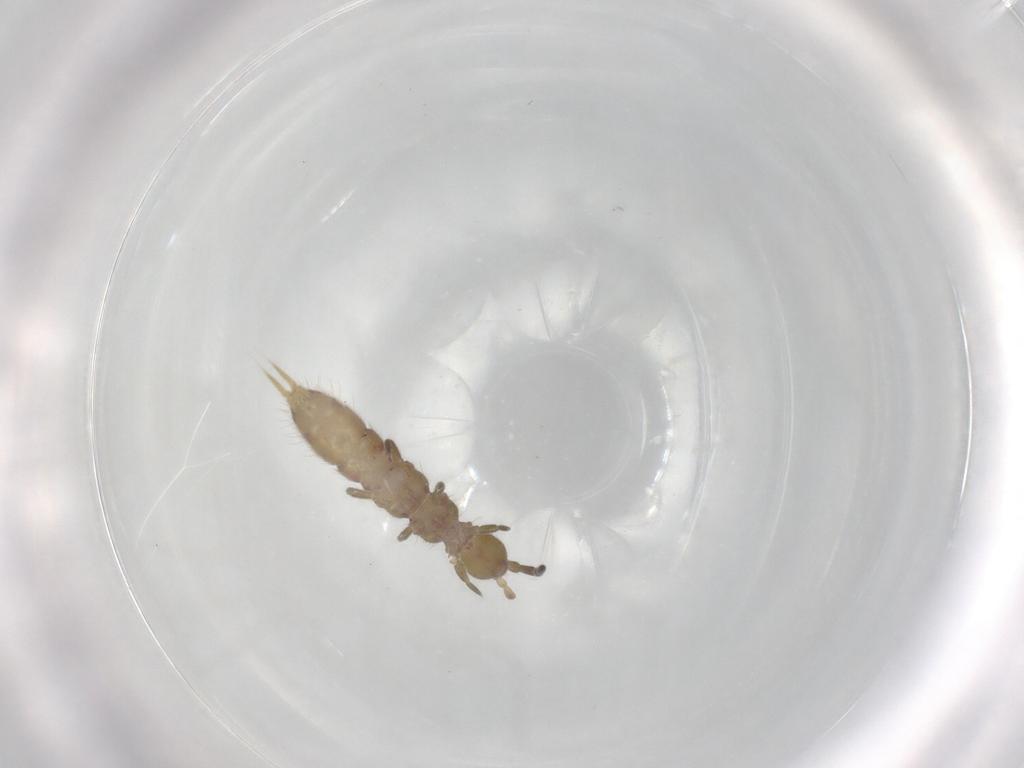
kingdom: Animalia
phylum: Arthropoda
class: Collembola
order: Entomobryomorpha
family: Isotomidae
